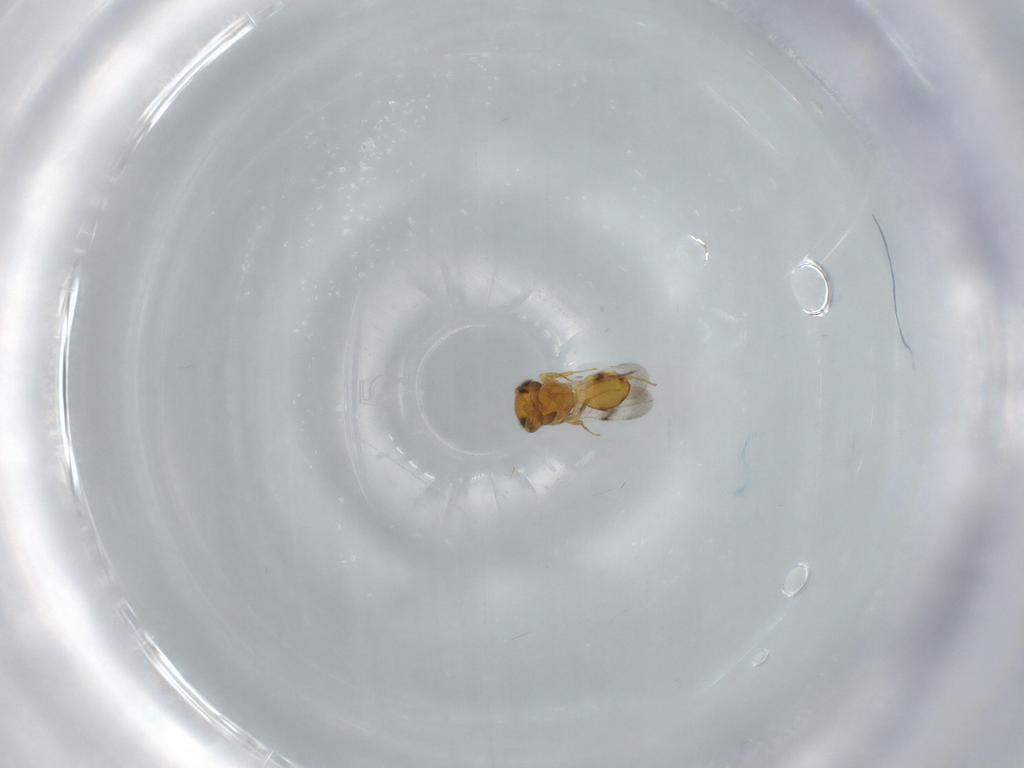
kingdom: Animalia
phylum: Arthropoda
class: Insecta
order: Hymenoptera
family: Scelionidae
